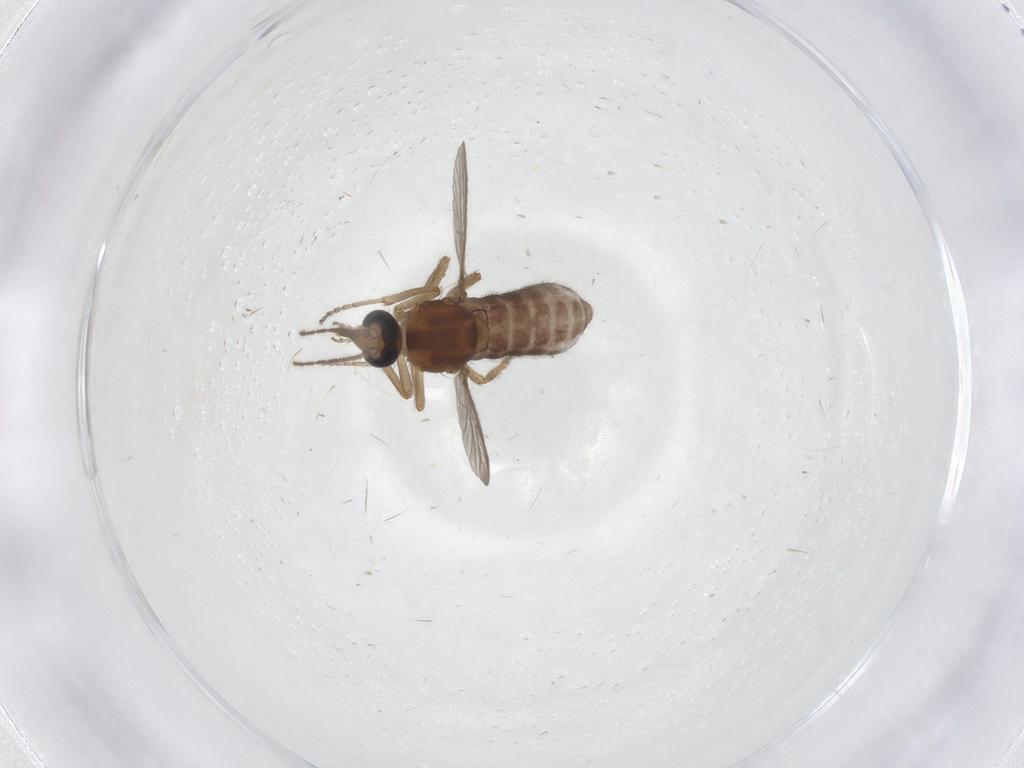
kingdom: Animalia
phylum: Arthropoda
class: Insecta
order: Diptera
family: Ceratopogonidae
